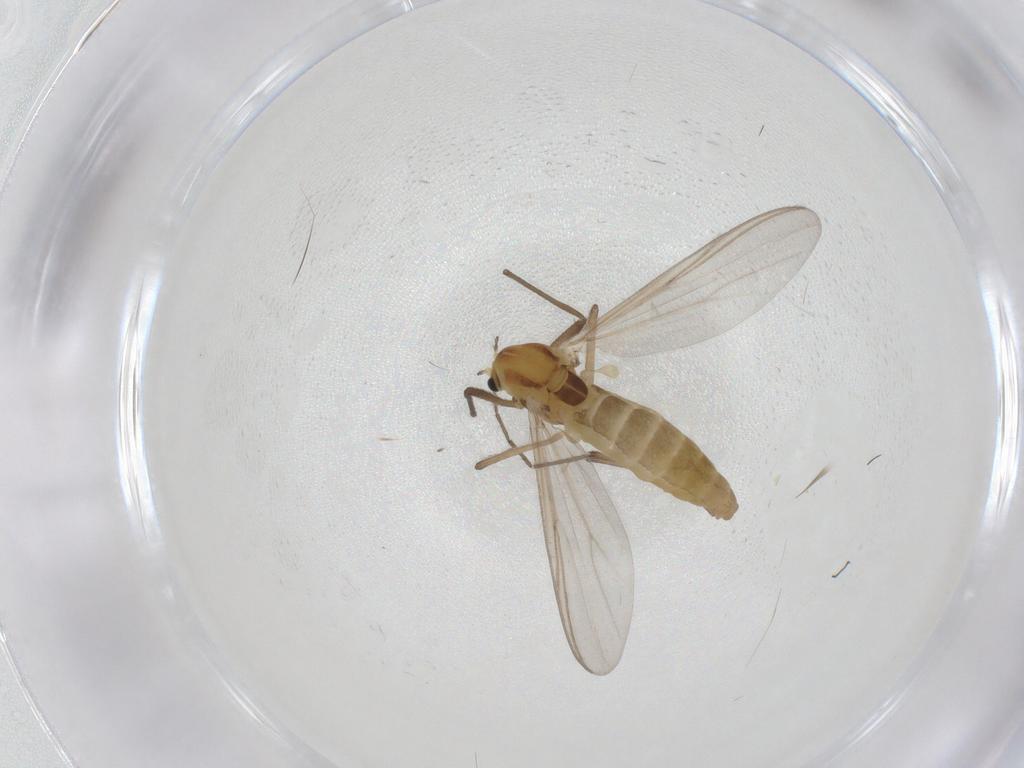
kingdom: Animalia
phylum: Arthropoda
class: Insecta
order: Diptera
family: Chironomidae
